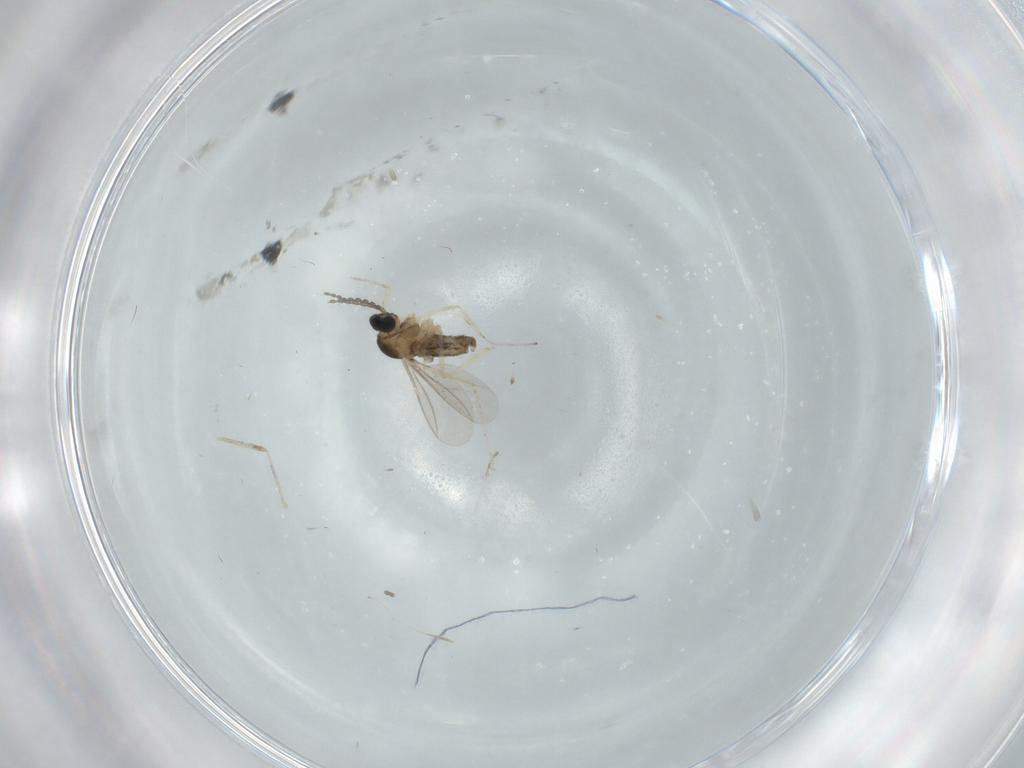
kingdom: Animalia
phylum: Arthropoda
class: Insecta
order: Diptera
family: Cecidomyiidae
